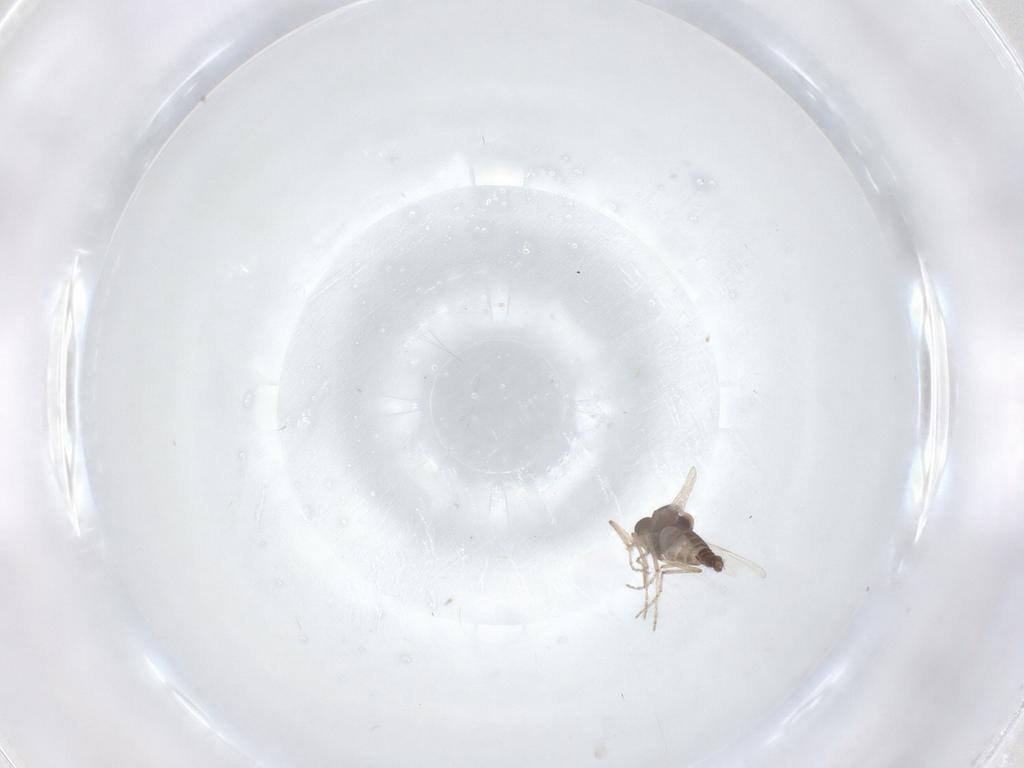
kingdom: Animalia
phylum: Arthropoda
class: Insecta
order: Diptera
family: Ceratopogonidae
